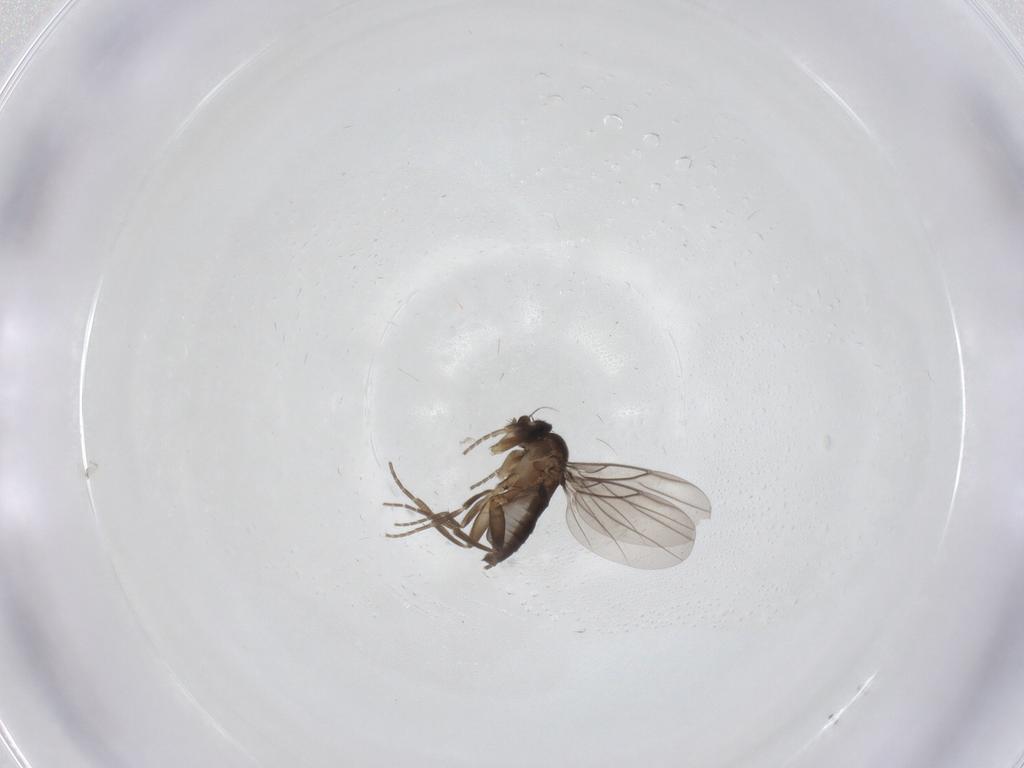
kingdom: Animalia
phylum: Arthropoda
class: Insecta
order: Diptera
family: Phoridae
